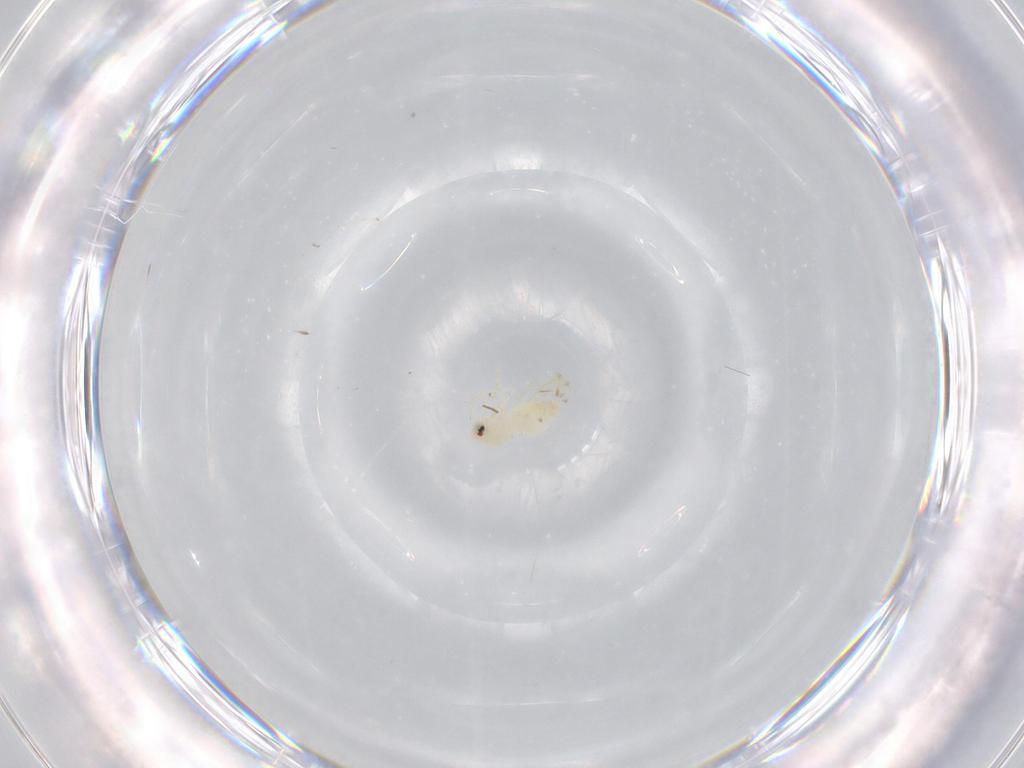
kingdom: Animalia
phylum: Arthropoda
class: Insecta
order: Hemiptera
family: Aleyrodidae
